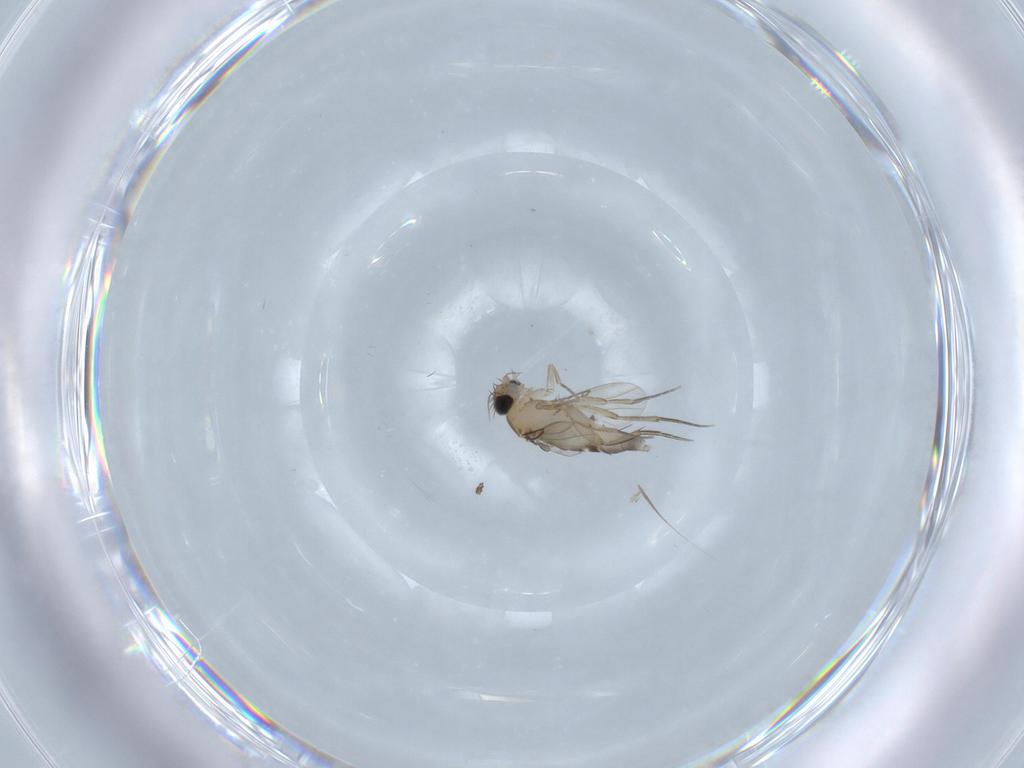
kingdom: Animalia
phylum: Arthropoda
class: Insecta
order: Diptera
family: Phoridae
